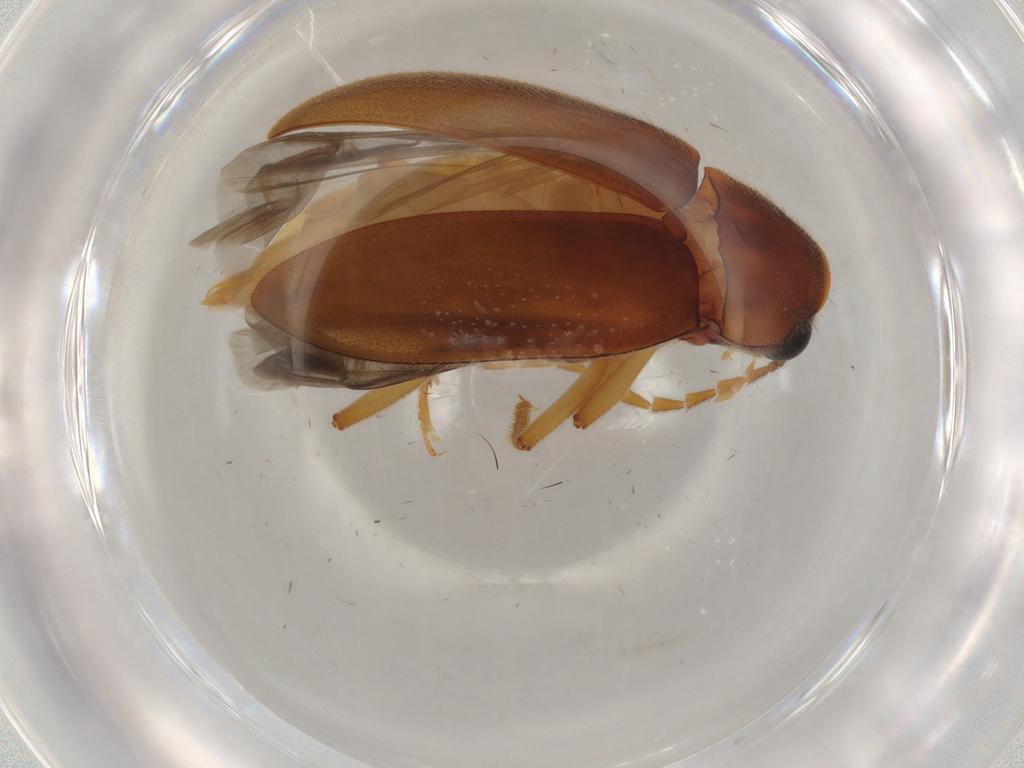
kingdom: Animalia
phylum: Arthropoda
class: Insecta
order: Coleoptera
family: Ptilodactylidae
